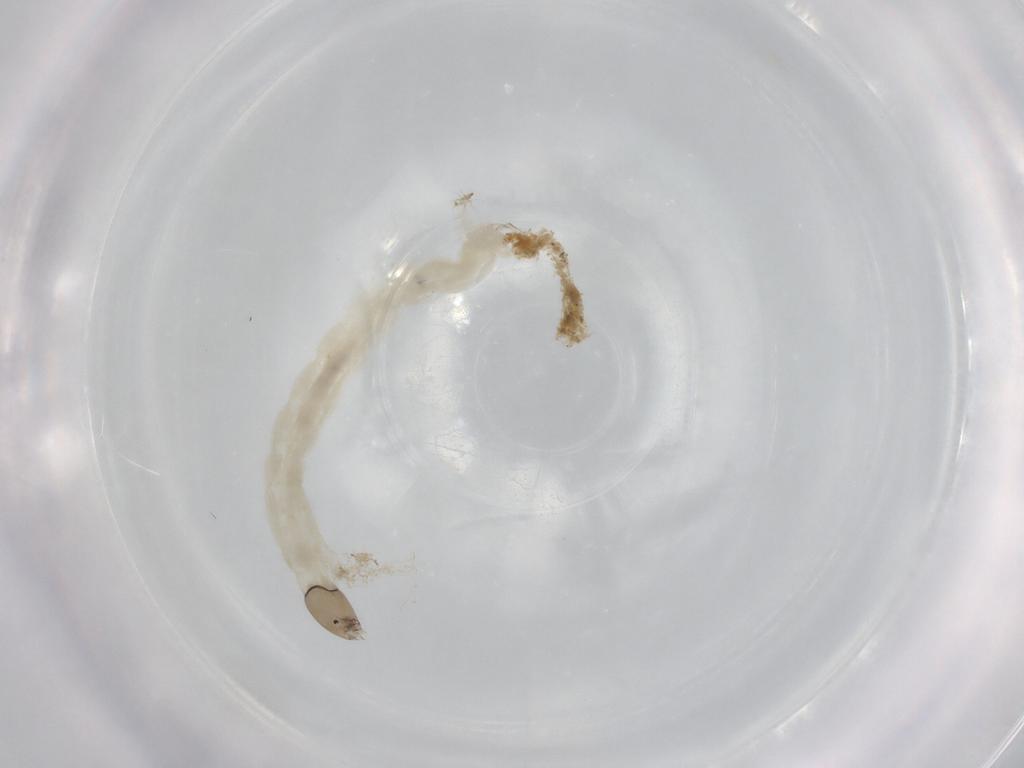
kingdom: Animalia
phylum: Arthropoda
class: Insecta
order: Diptera
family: Chironomidae
